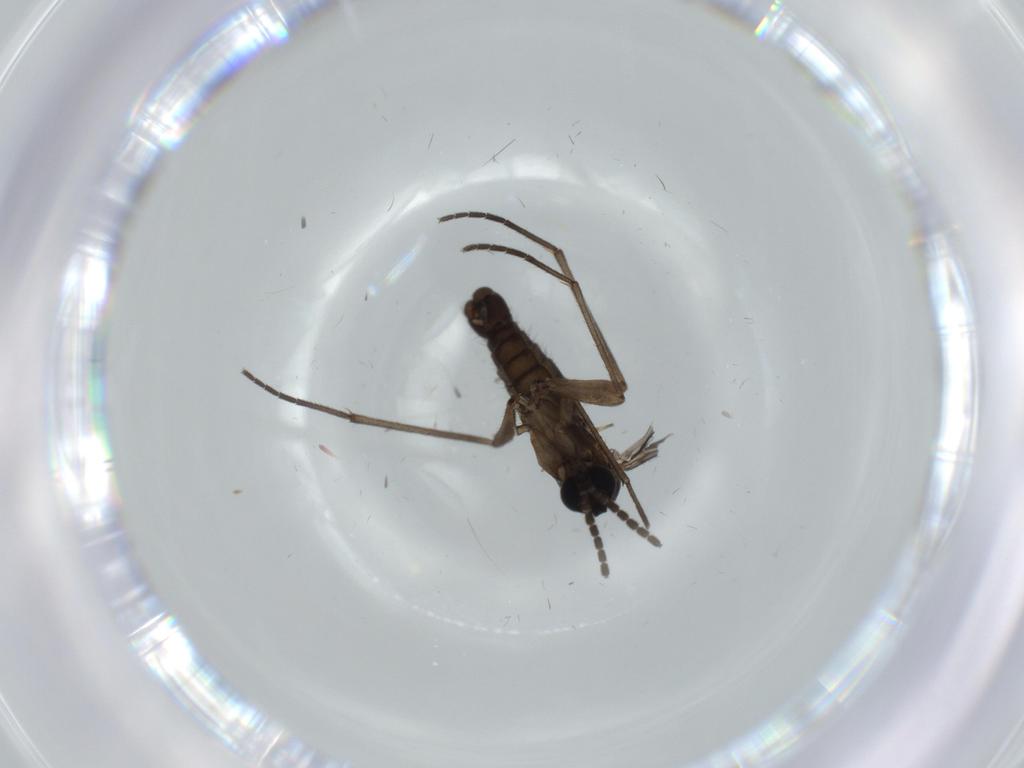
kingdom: Animalia
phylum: Arthropoda
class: Insecta
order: Diptera
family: Sciaridae
